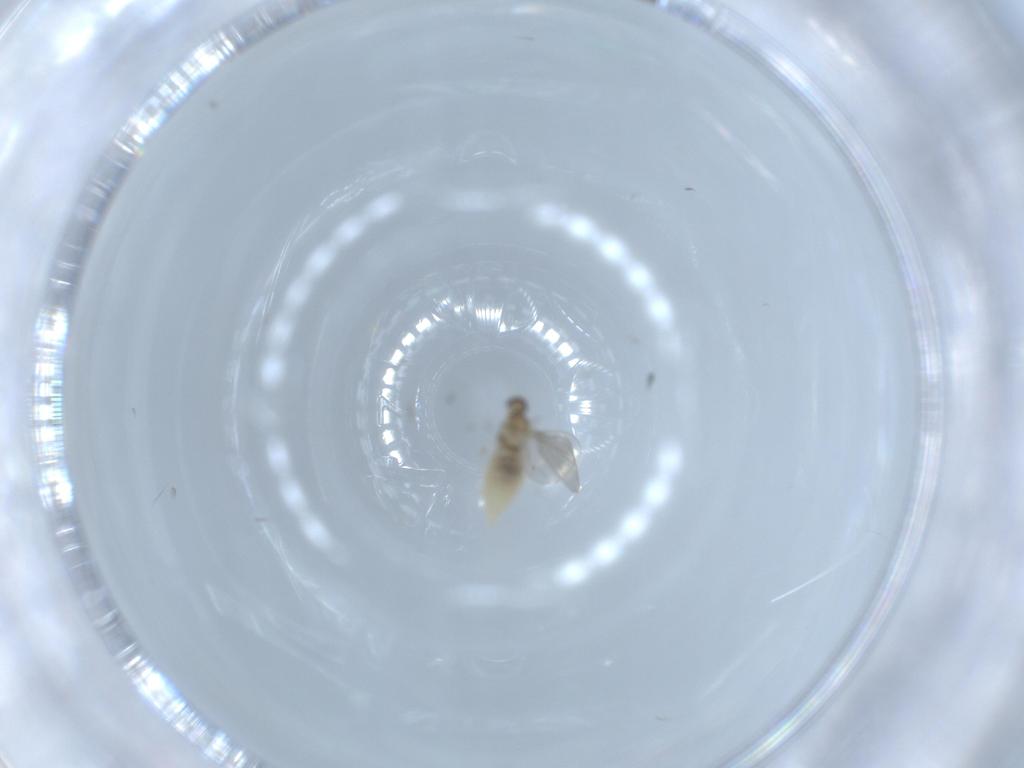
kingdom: Animalia
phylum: Arthropoda
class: Insecta
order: Diptera
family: Cecidomyiidae
